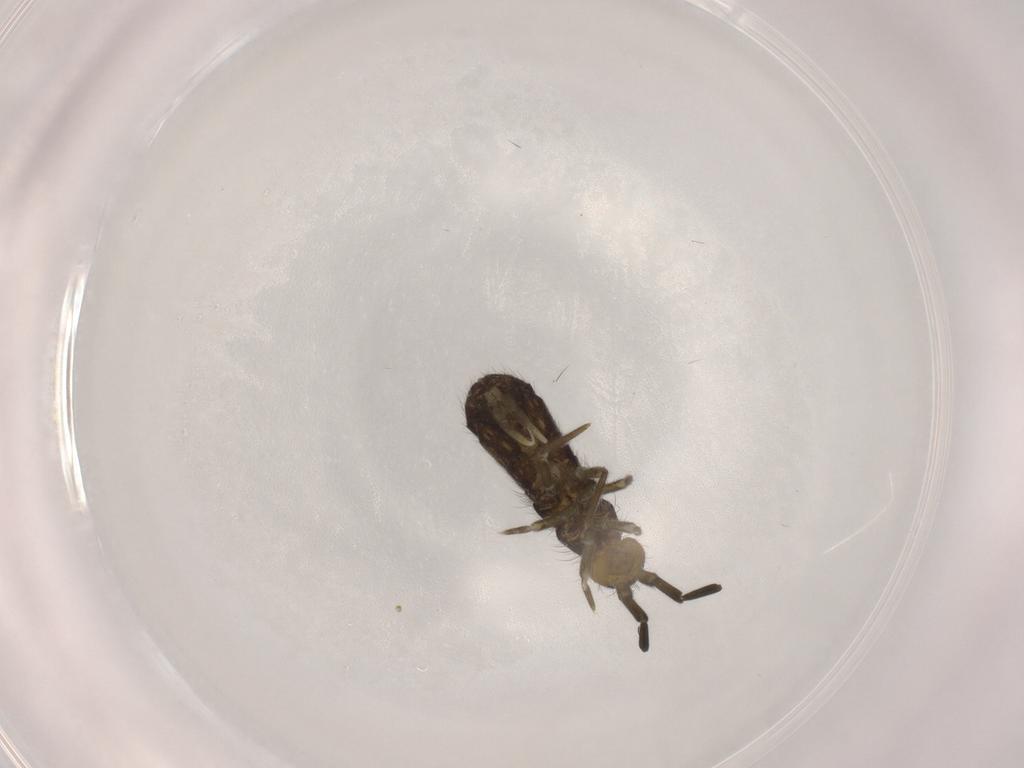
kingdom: Animalia
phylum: Arthropoda
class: Collembola
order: Entomobryomorpha
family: Isotomidae
